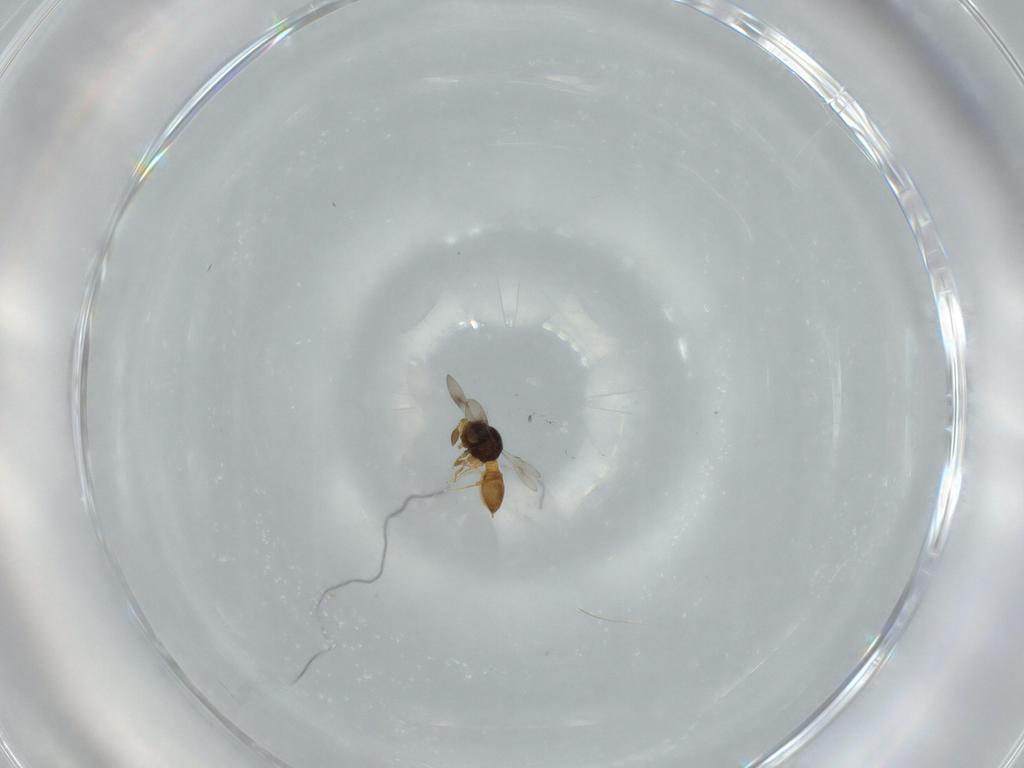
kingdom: Animalia
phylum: Arthropoda
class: Insecta
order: Hymenoptera
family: Scelionidae
